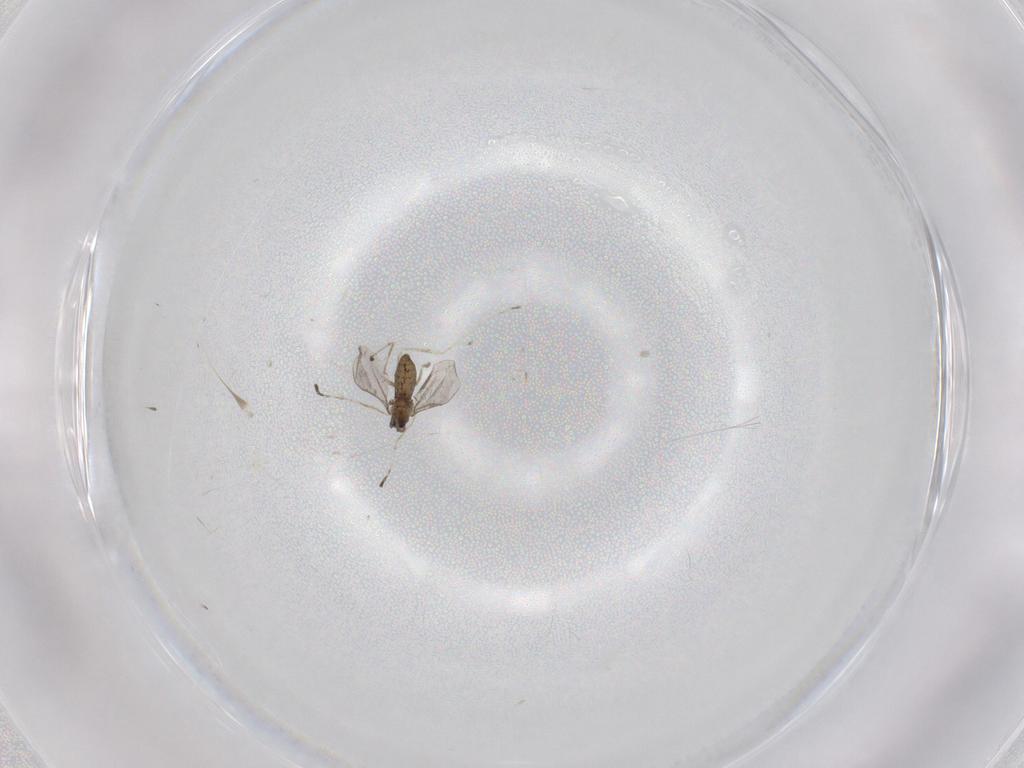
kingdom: Animalia
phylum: Arthropoda
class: Insecta
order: Diptera
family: Cecidomyiidae
